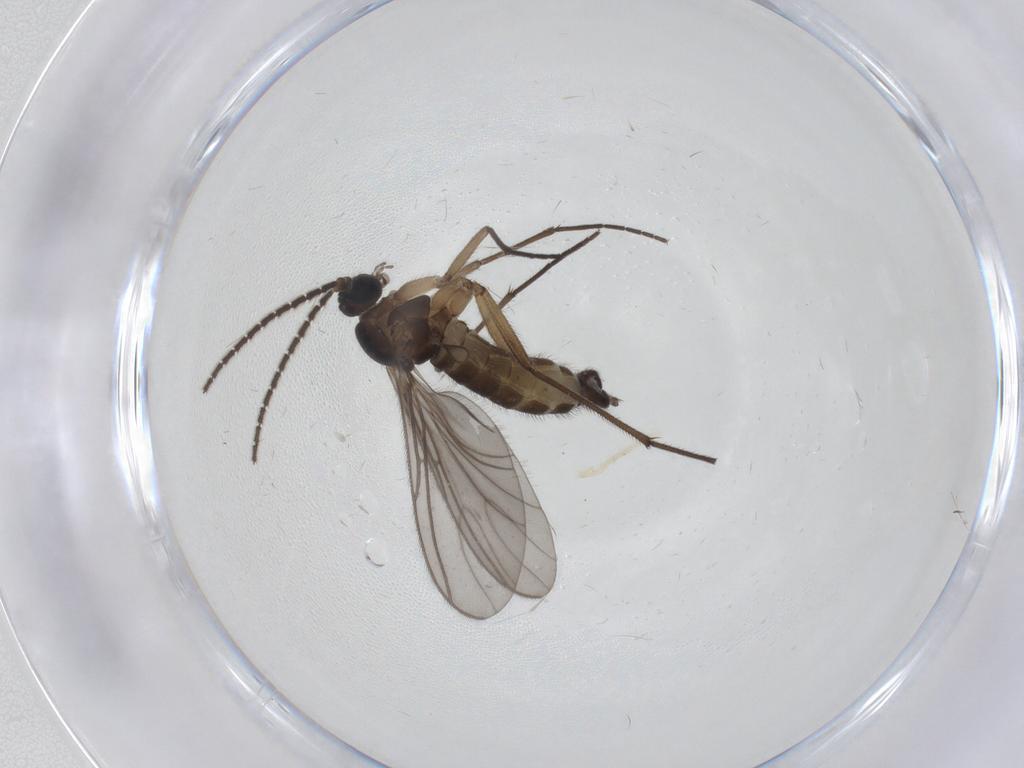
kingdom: Animalia
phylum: Arthropoda
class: Insecta
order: Diptera
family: Sciaridae
